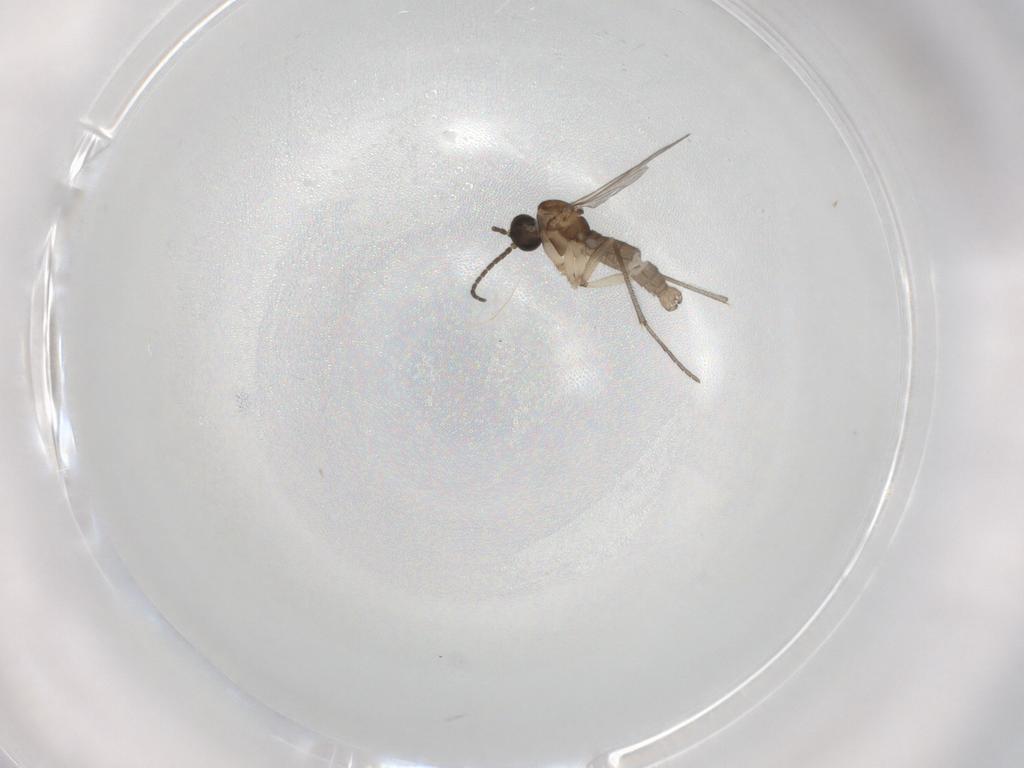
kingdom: Animalia
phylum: Arthropoda
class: Insecta
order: Diptera
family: Sciaridae
